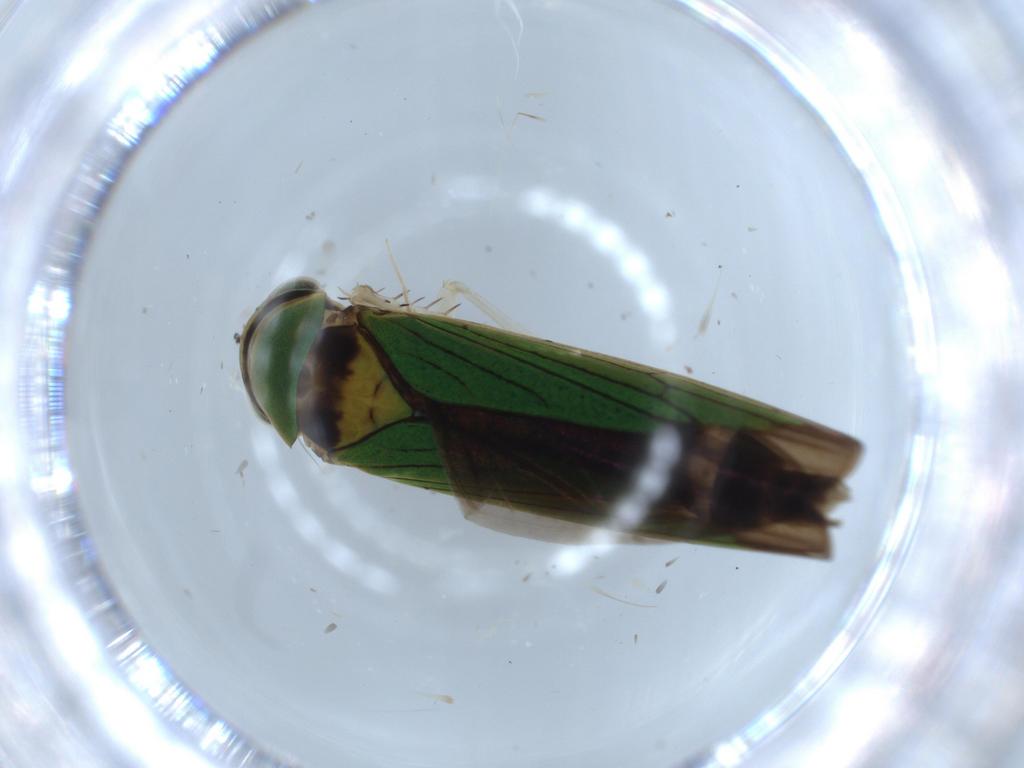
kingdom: Animalia
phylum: Arthropoda
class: Insecta
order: Hemiptera
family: Cicadellidae
